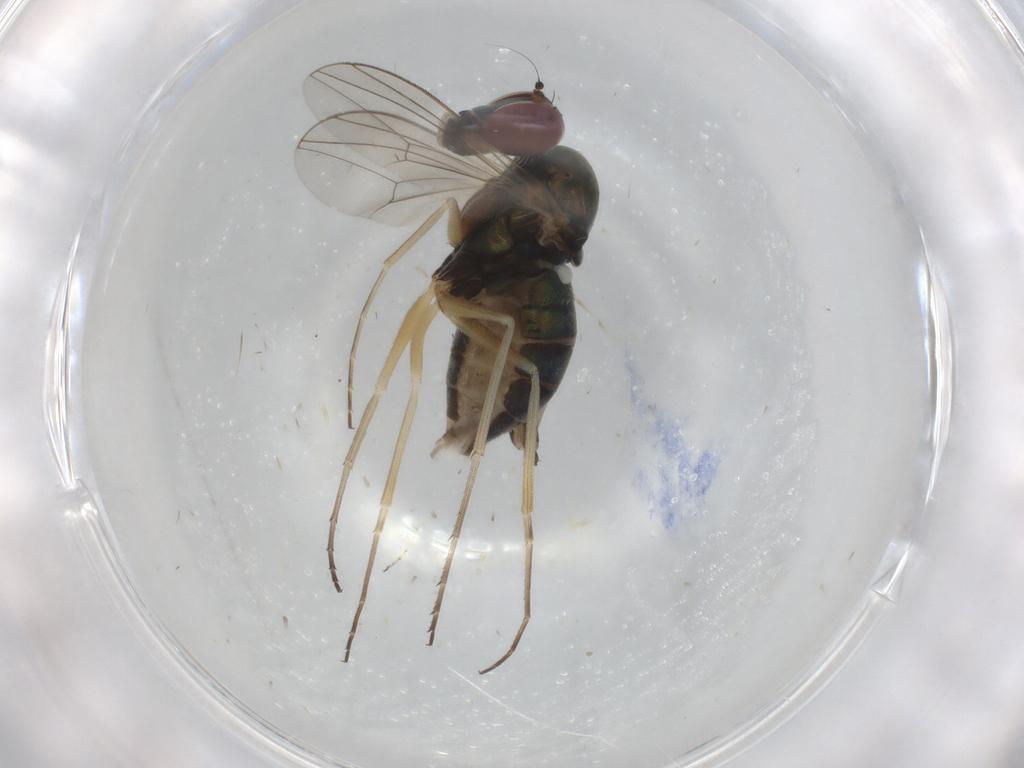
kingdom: Animalia
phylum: Arthropoda
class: Insecta
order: Diptera
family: Dolichopodidae
